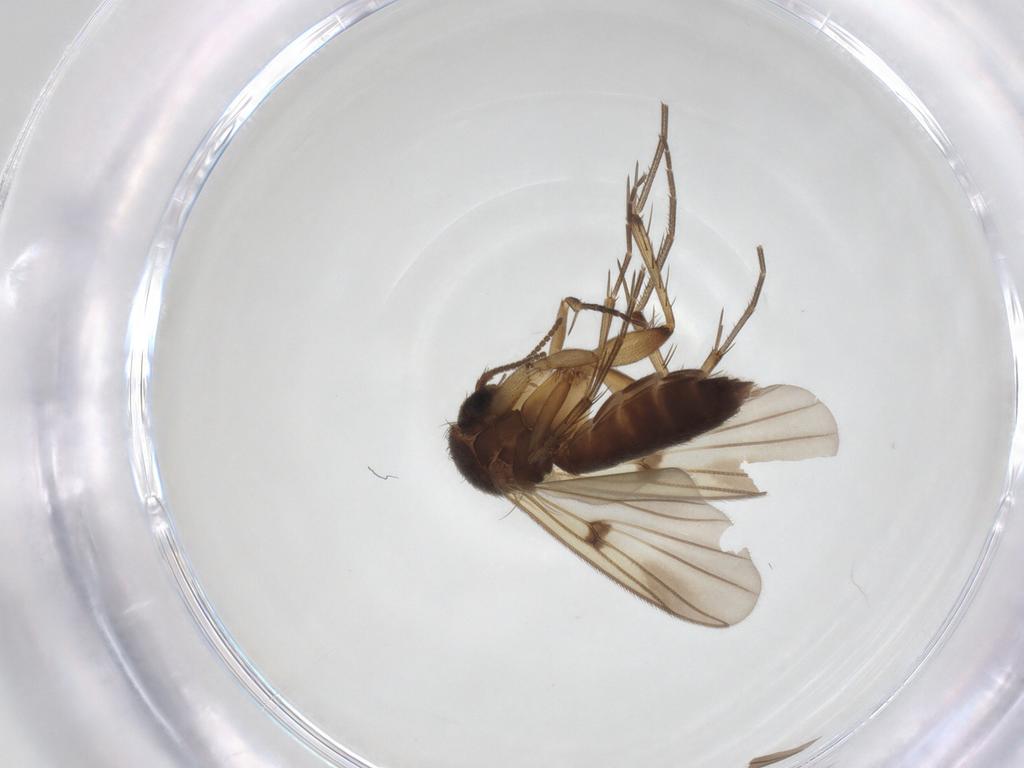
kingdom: Animalia
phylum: Arthropoda
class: Insecta
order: Diptera
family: Mycetophilidae
